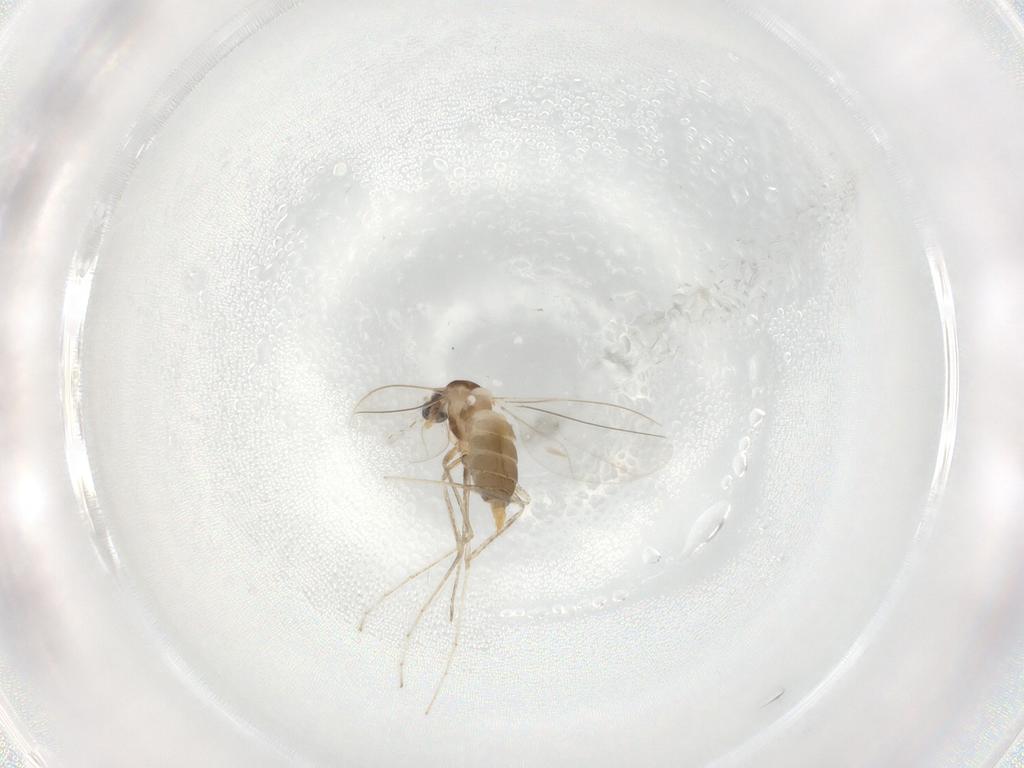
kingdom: Animalia
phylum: Arthropoda
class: Insecta
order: Diptera
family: Cecidomyiidae
